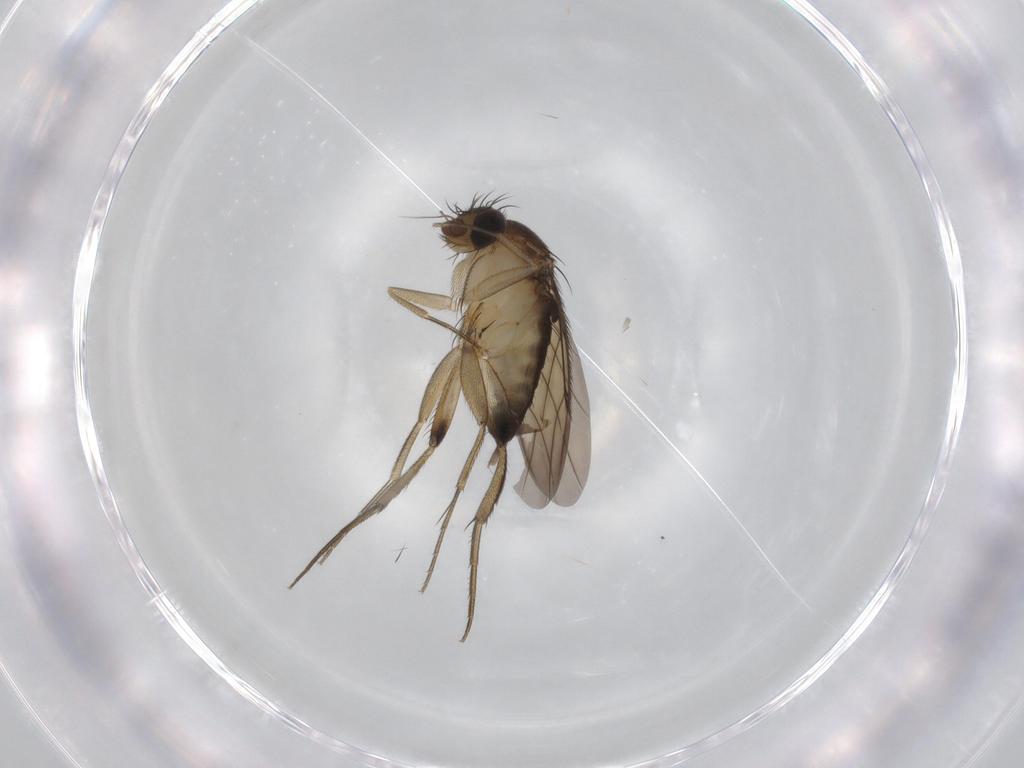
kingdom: Animalia
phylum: Arthropoda
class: Insecta
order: Diptera
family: Phoridae
